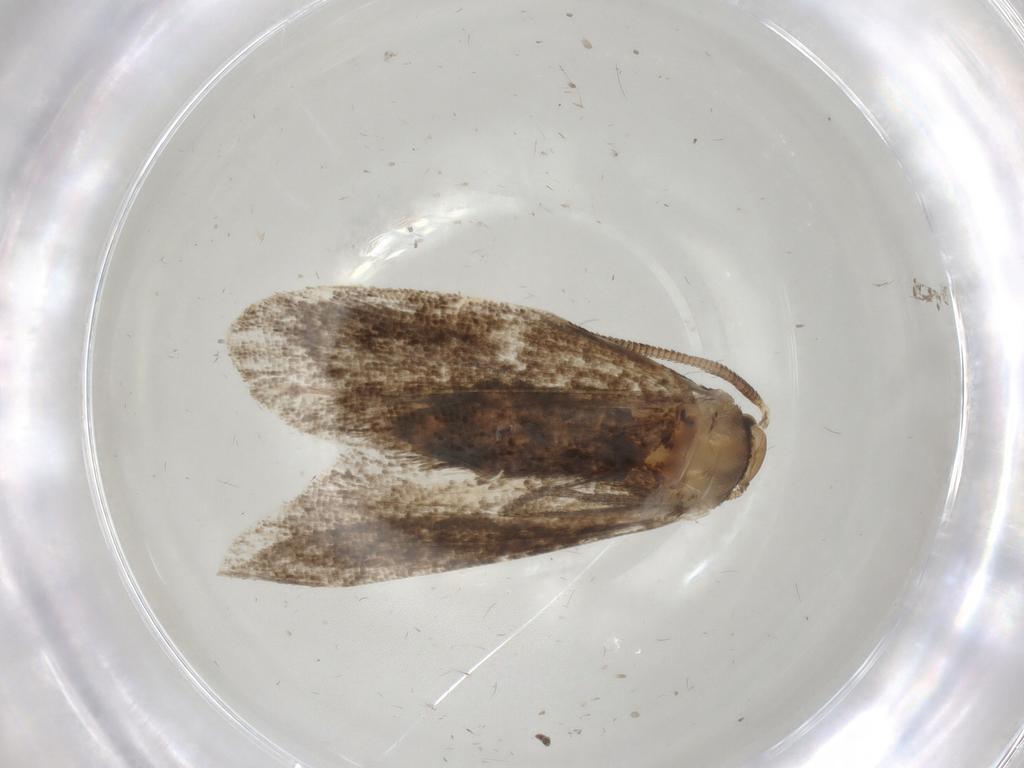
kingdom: Animalia
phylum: Arthropoda
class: Insecta
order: Lepidoptera
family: Dryadaulidae
